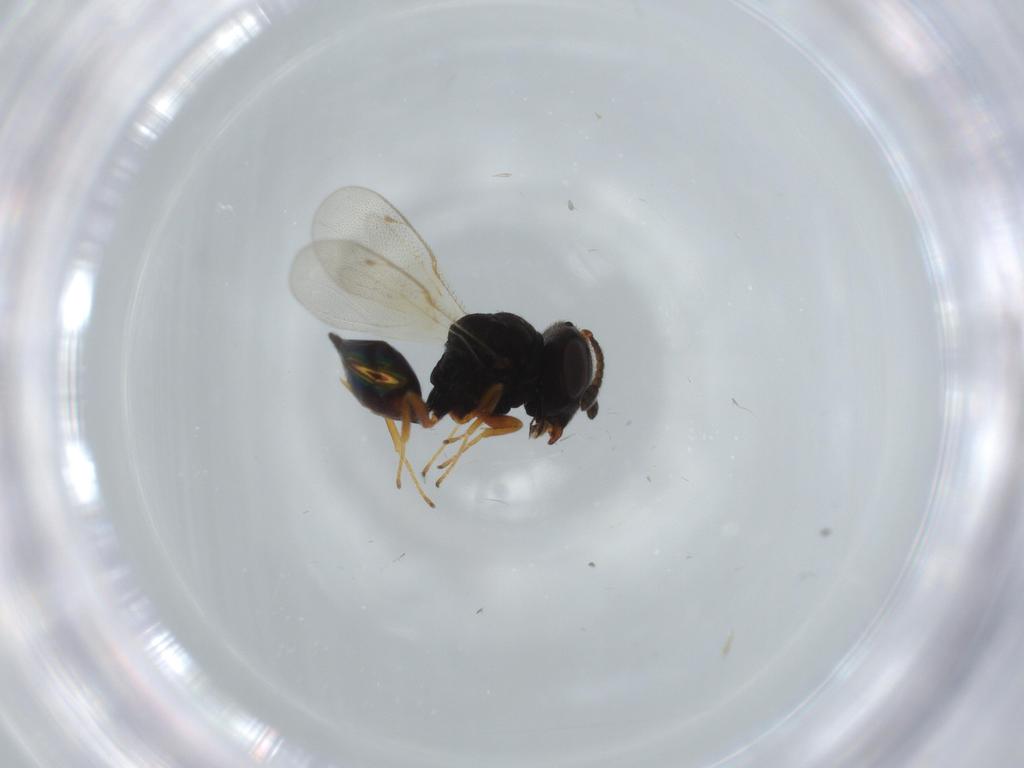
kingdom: Animalia
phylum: Arthropoda
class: Insecta
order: Hymenoptera
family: Pteromalidae
